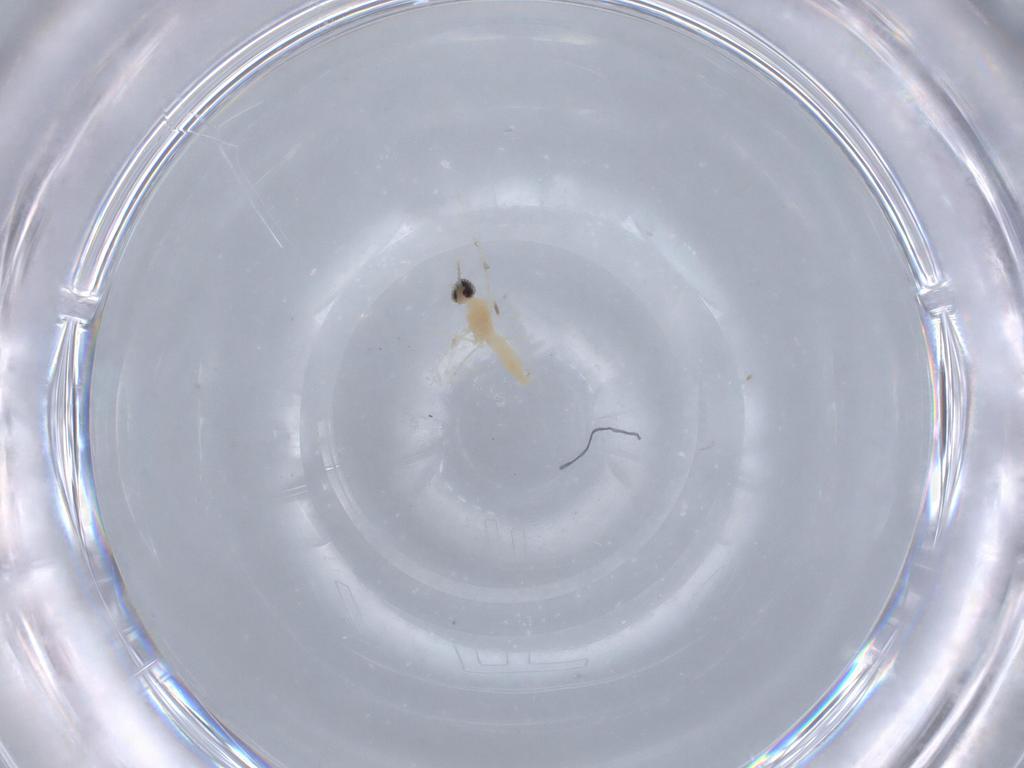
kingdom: Animalia
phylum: Arthropoda
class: Insecta
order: Diptera
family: Cecidomyiidae
